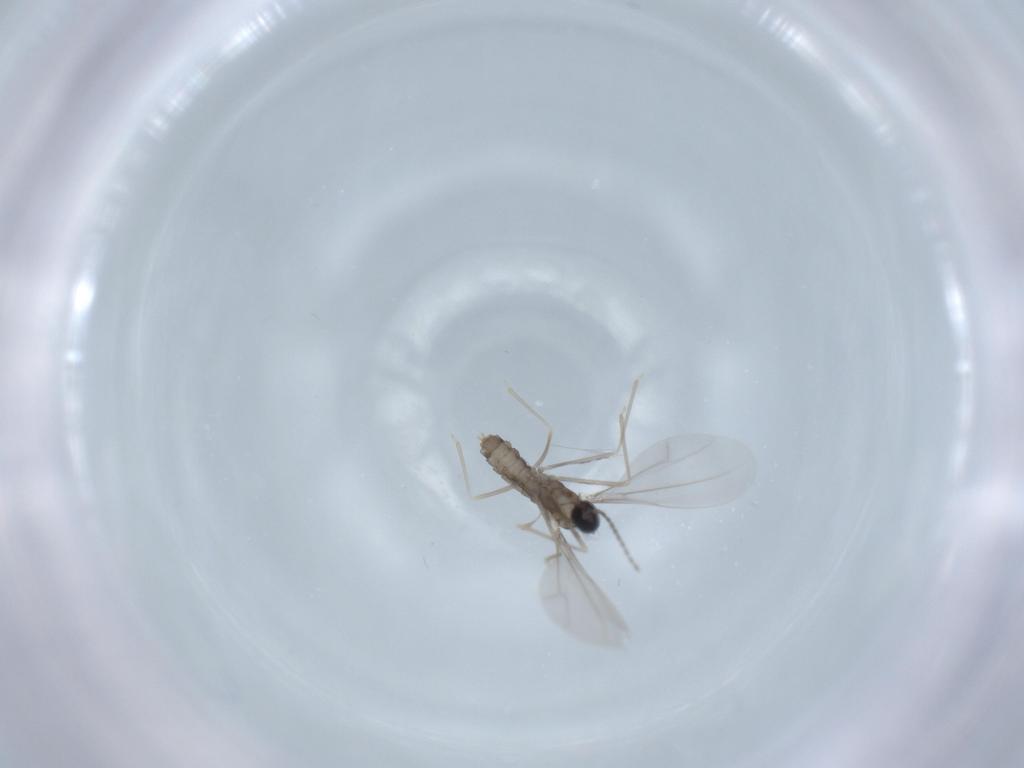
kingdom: Animalia
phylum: Arthropoda
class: Insecta
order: Diptera
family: Cecidomyiidae
